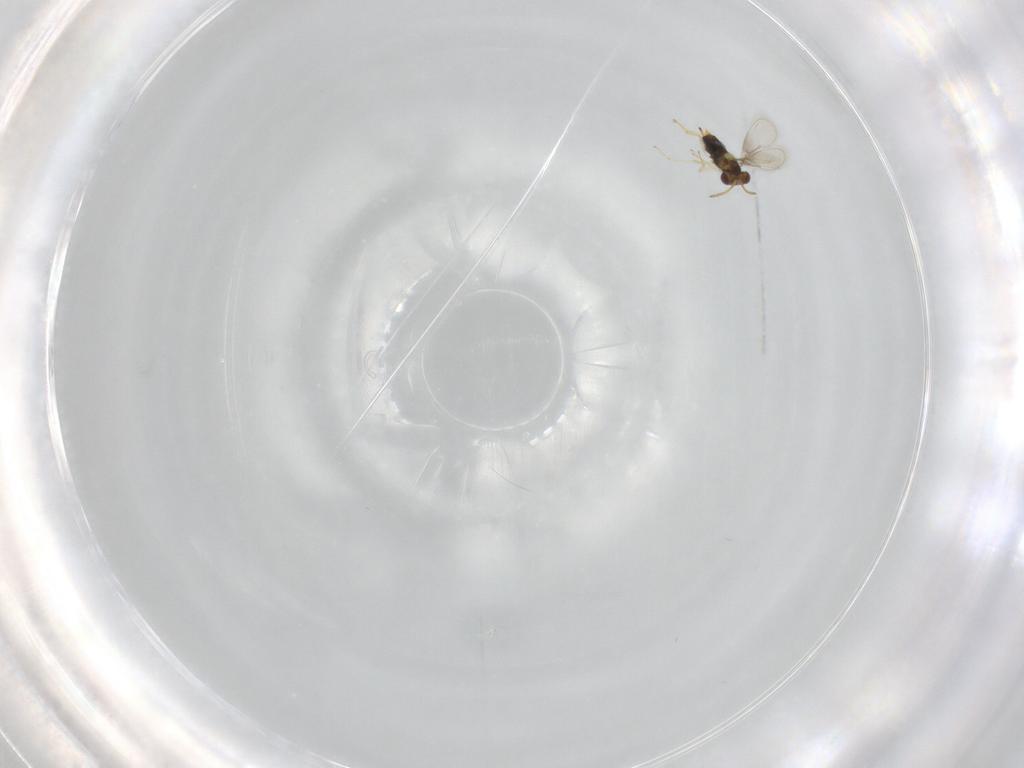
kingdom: Animalia
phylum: Arthropoda
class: Insecta
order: Hymenoptera
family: Aphelinidae
